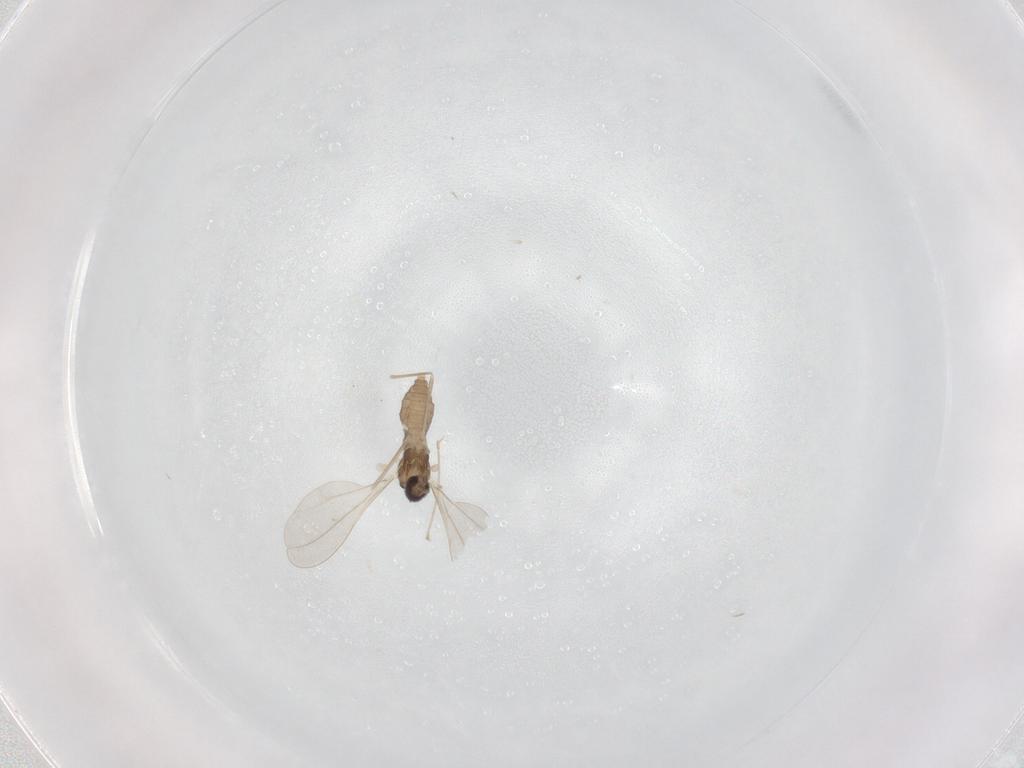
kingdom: Animalia
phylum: Arthropoda
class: Insecta
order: Diptera
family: Cecidomyiidae
